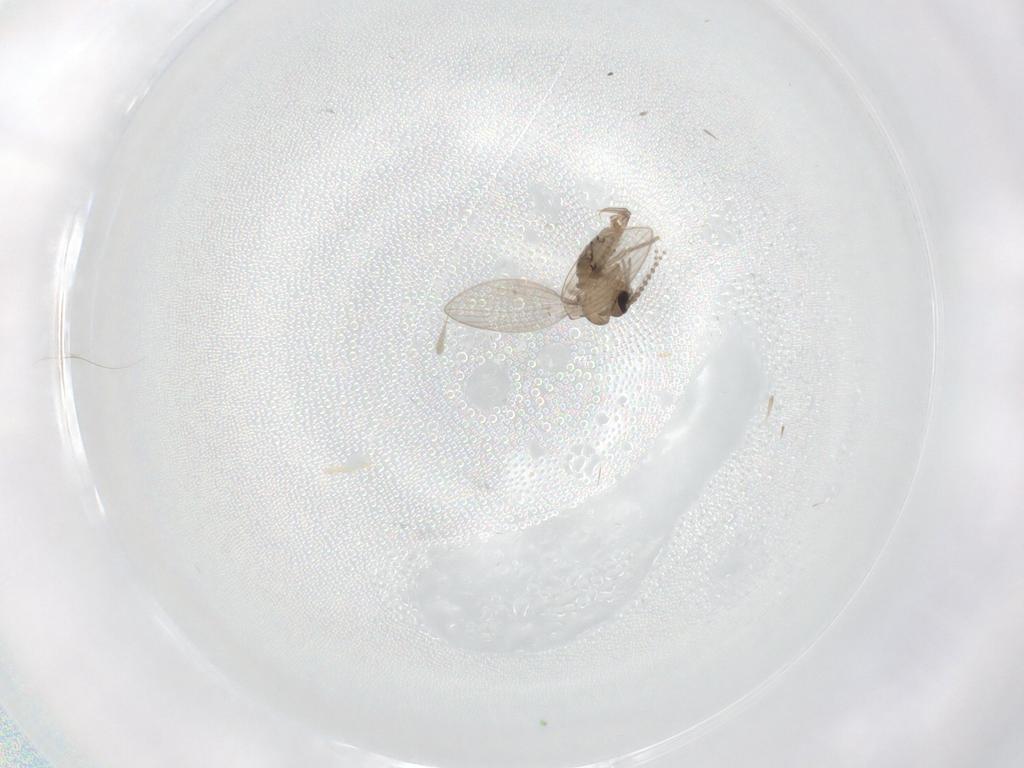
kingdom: Animalia
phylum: Arthropoda
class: Insecta
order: Diptera
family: Psychodidae
